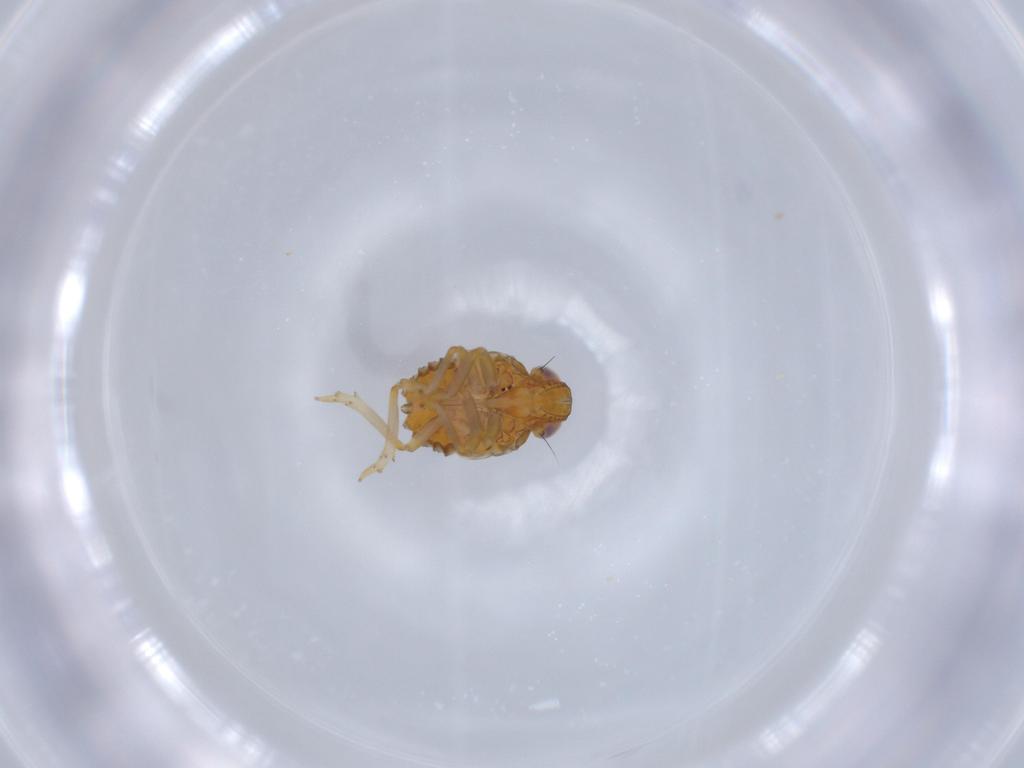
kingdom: Animalia
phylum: Arthropoda
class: Insecta
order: Hemiptera
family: Issidae
